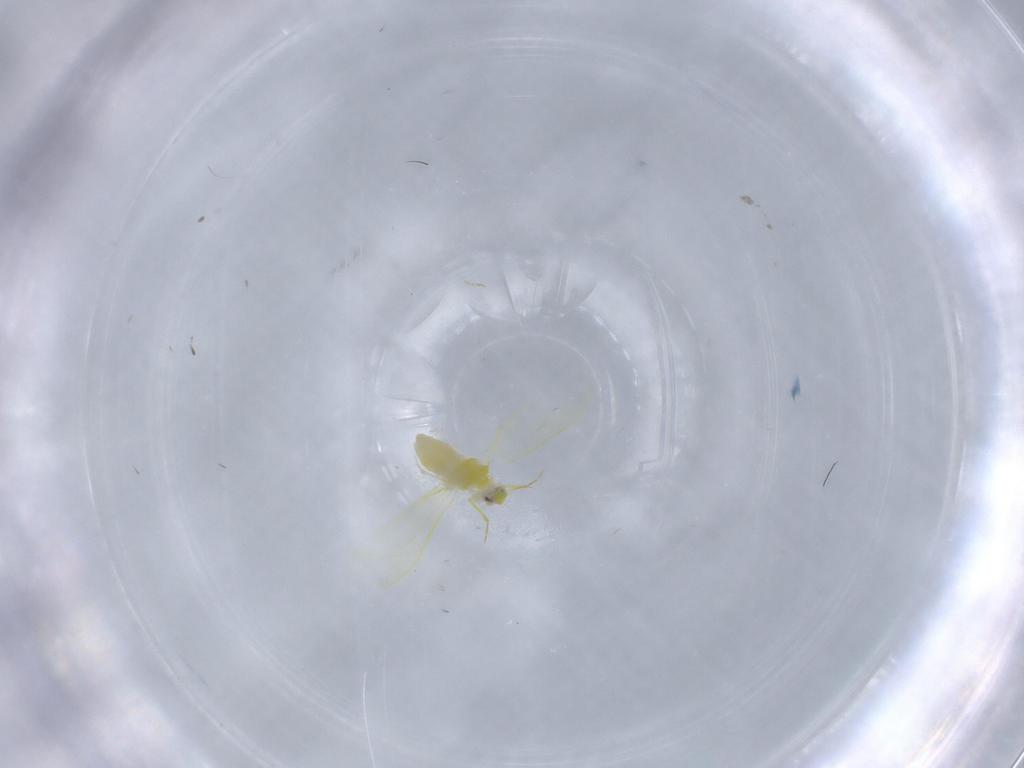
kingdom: Animalia
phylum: Arthropoda
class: Insecta
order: Hemiptera
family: Aleyrodidae
